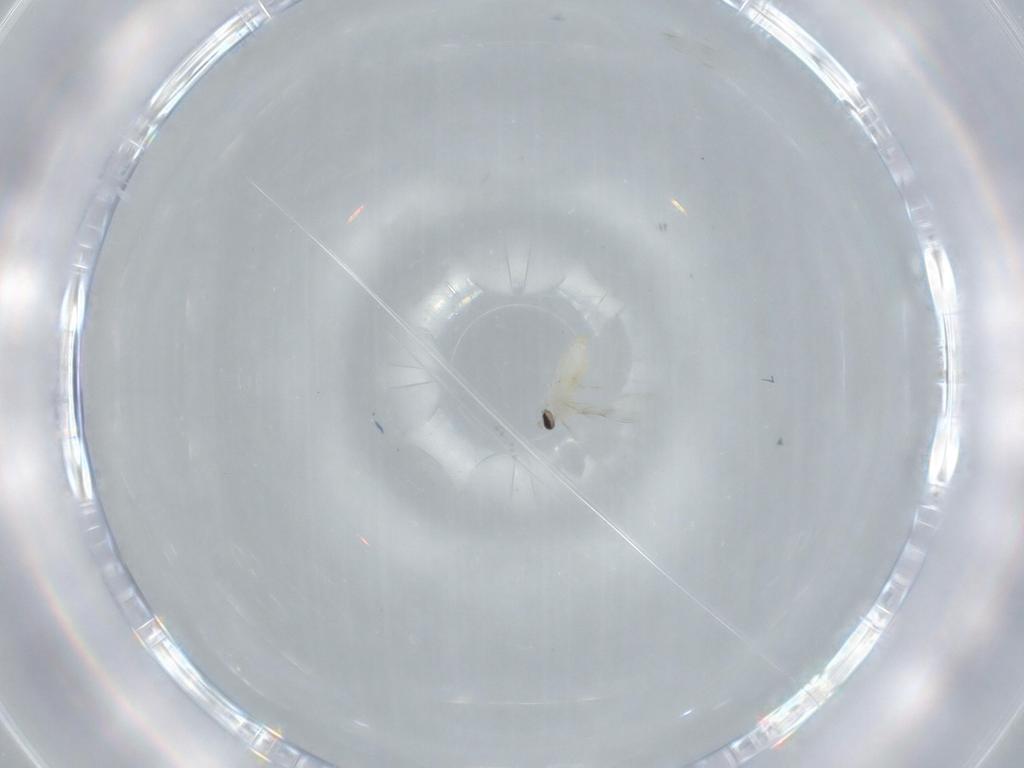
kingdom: Animalia
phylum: Arthropoda
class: Insecta
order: Diptera
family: Cecidomyiidae
